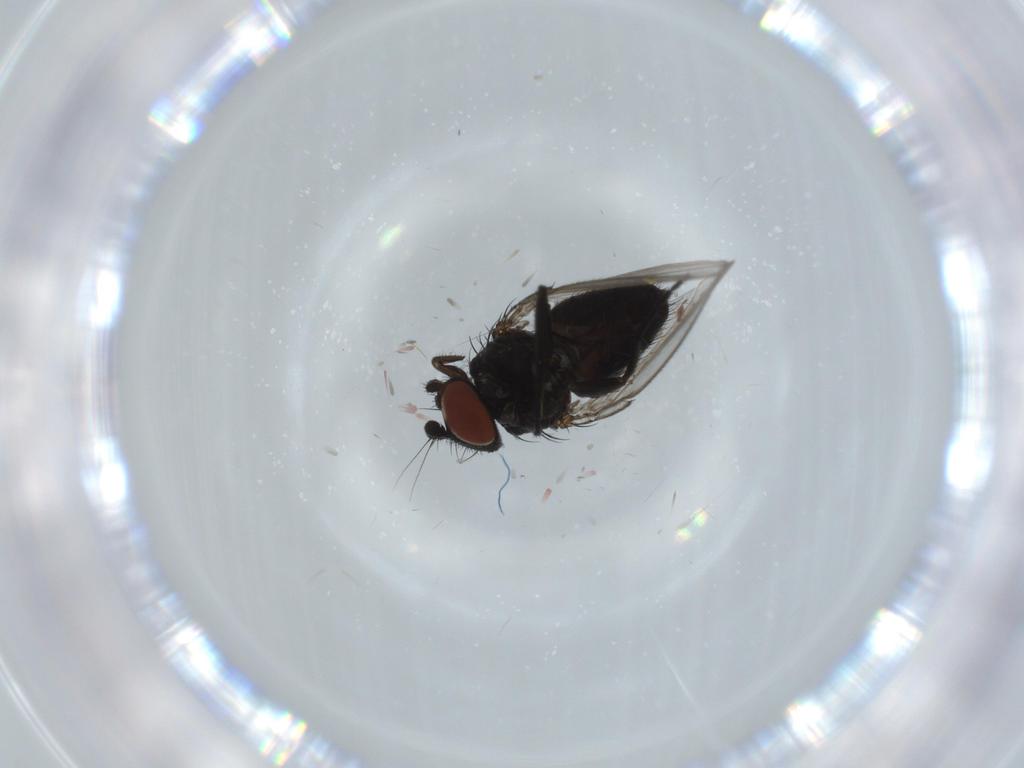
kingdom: Animalia
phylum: Arthropoda
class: Insecta
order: Diptera
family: Milichiidae
